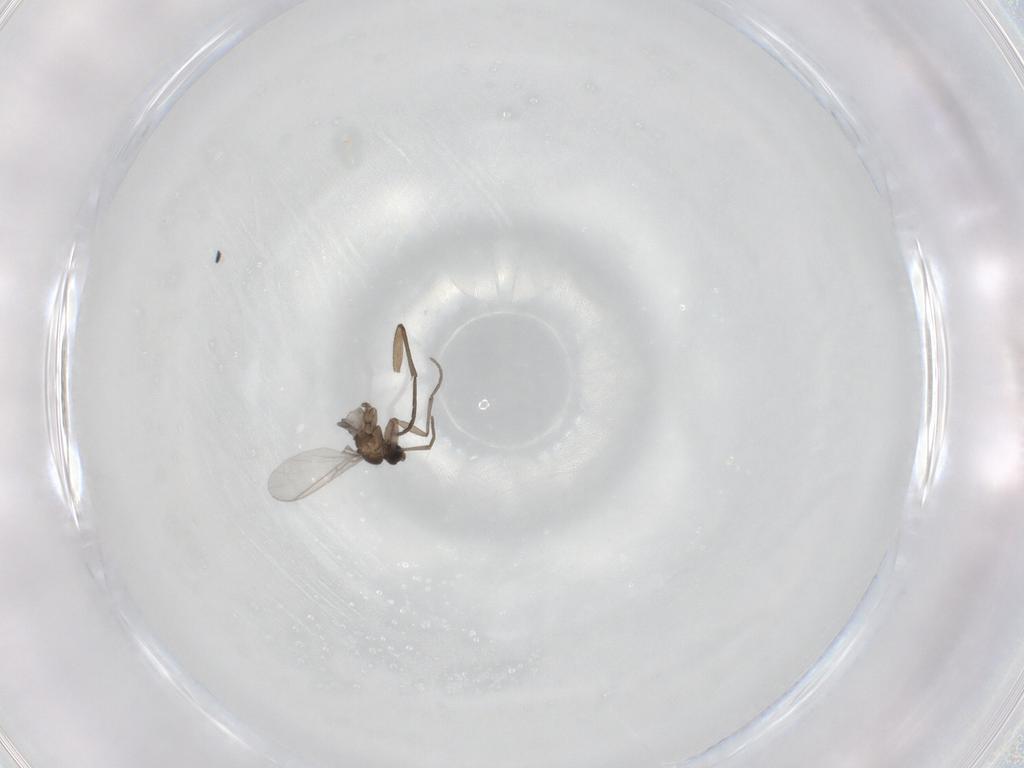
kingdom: Animalia
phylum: Arthropoda
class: Insecta
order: Diptera
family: Sciaridae
